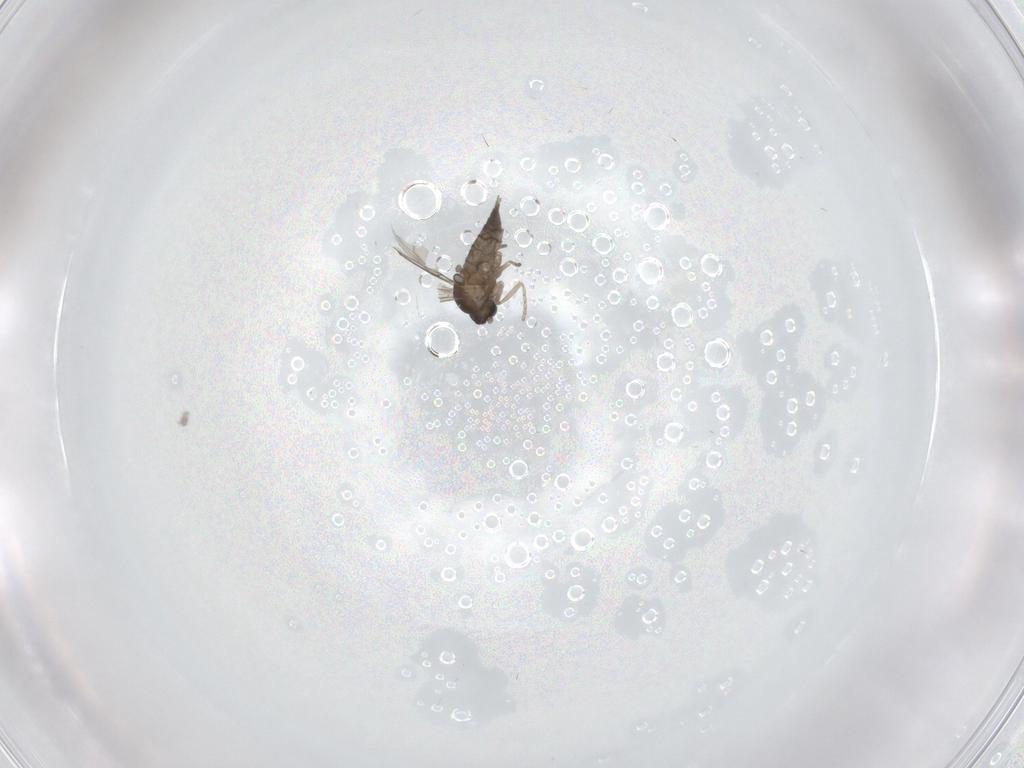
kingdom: Animalia
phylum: Arthropoda
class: Insecta
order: Diptera
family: Cecidomyiidae
